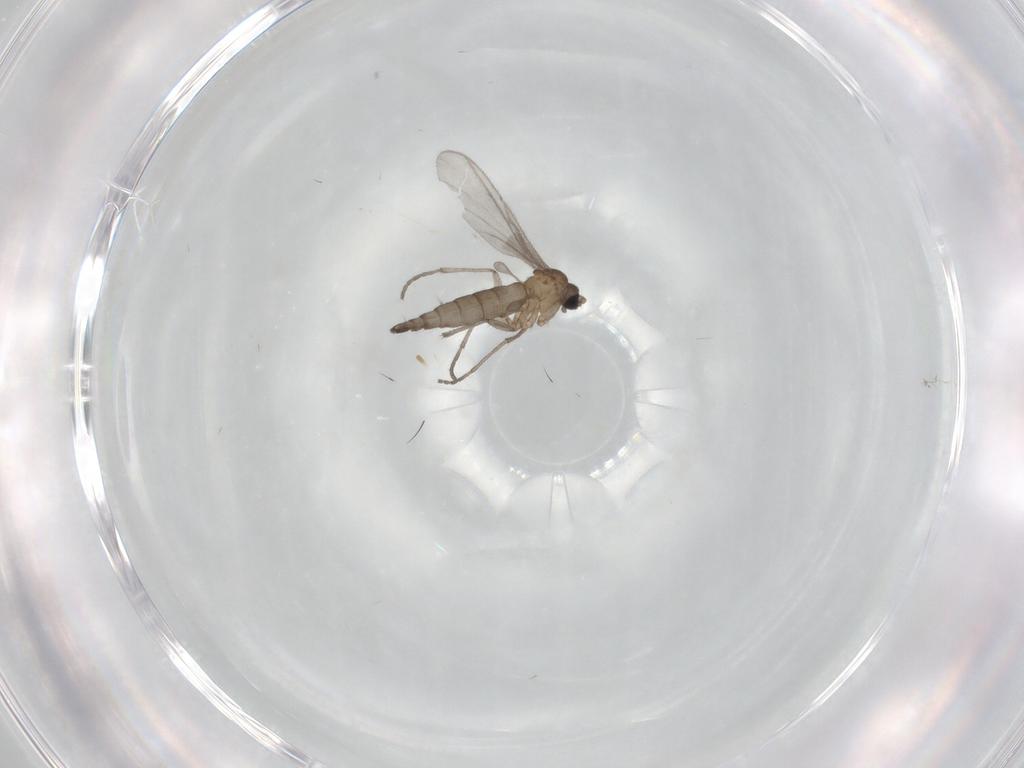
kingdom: Animalia
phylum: Arthropoda
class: Insecta
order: Diptera
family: Sciaridae
